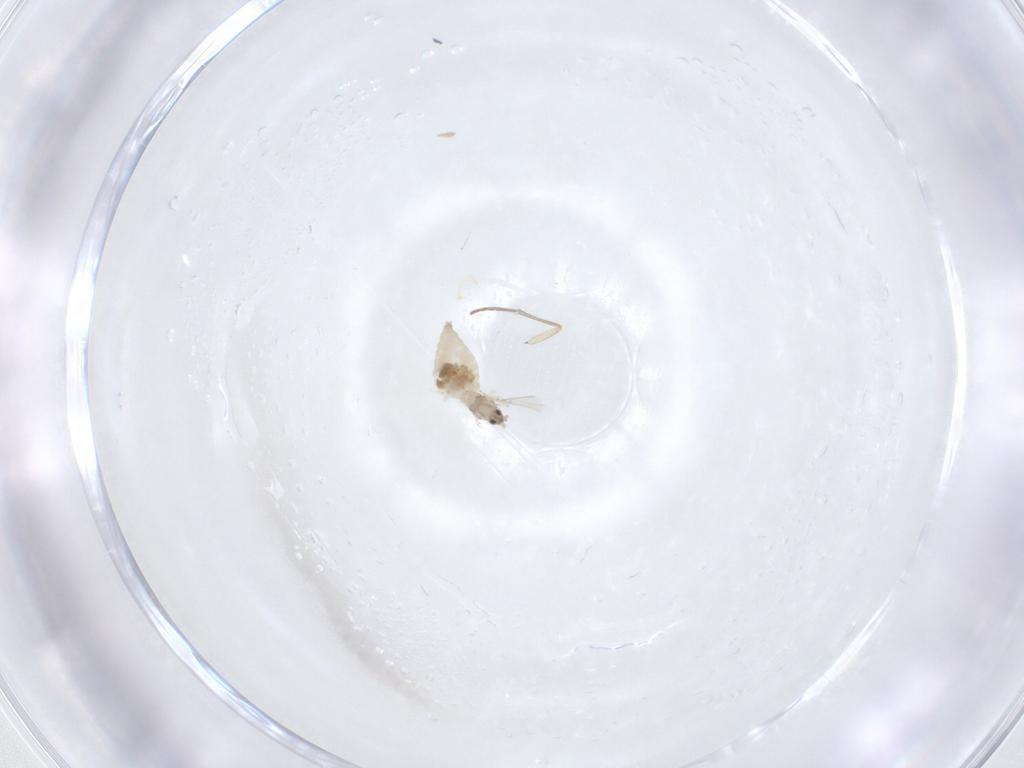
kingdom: Animalia
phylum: Arthropoda
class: Insecta
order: Diptera
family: Cecidomyiidae
